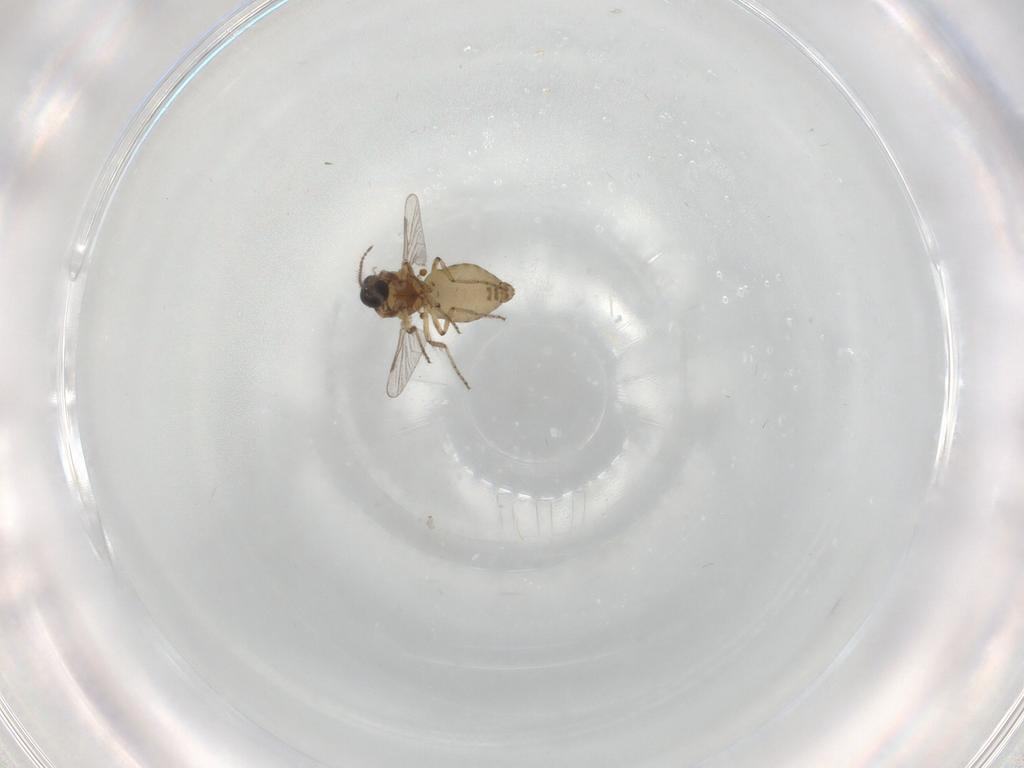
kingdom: Animalia
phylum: Arthropoda
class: Insecta
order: Diptera
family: Ceratopogonidae
